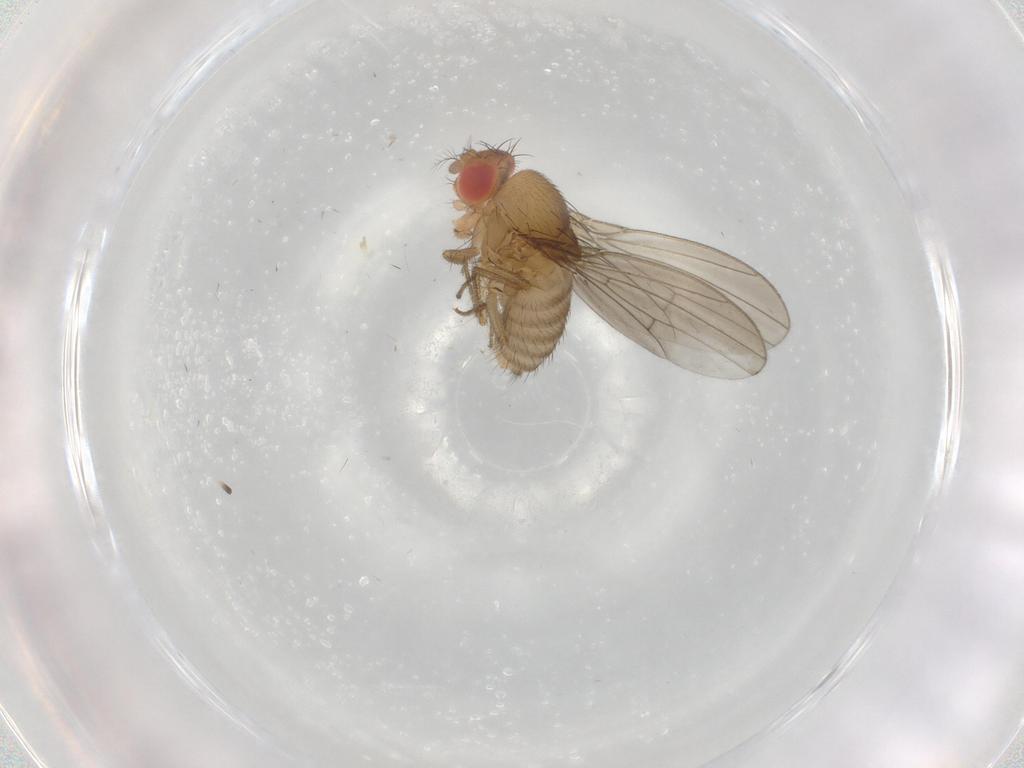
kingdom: Animalia
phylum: Arthropoda
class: Insecta
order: Diptera
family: Drosophilidae
